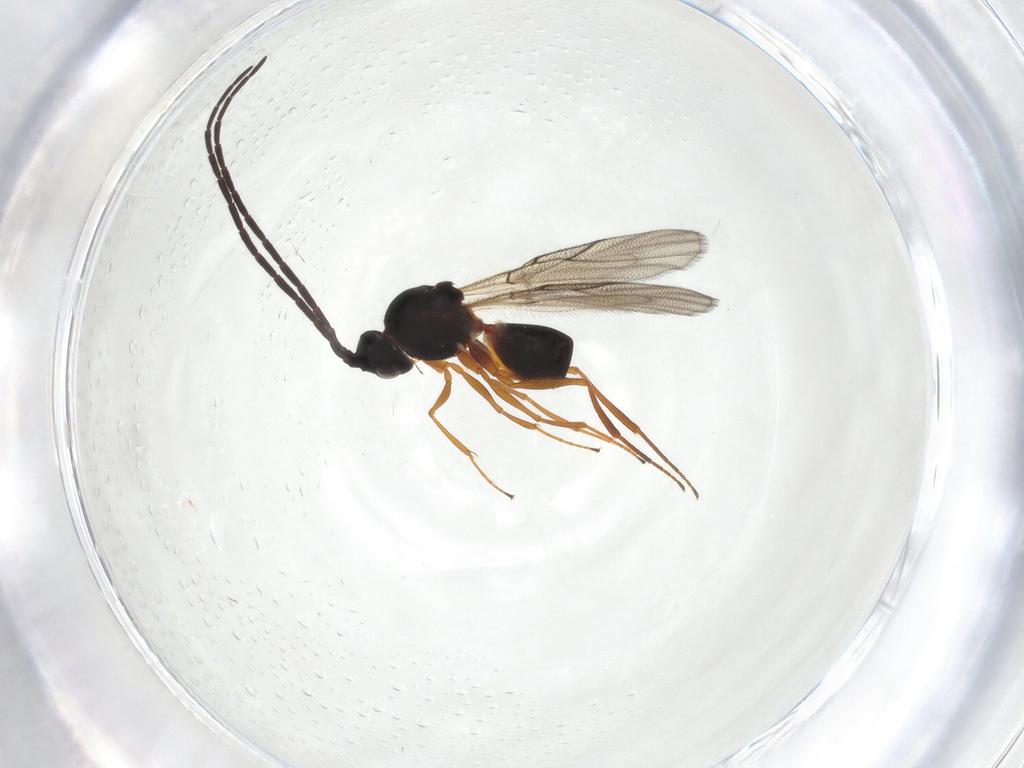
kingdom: Animalia
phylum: Arthropoda
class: Insecta
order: Hymenoptera
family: Figitidae
